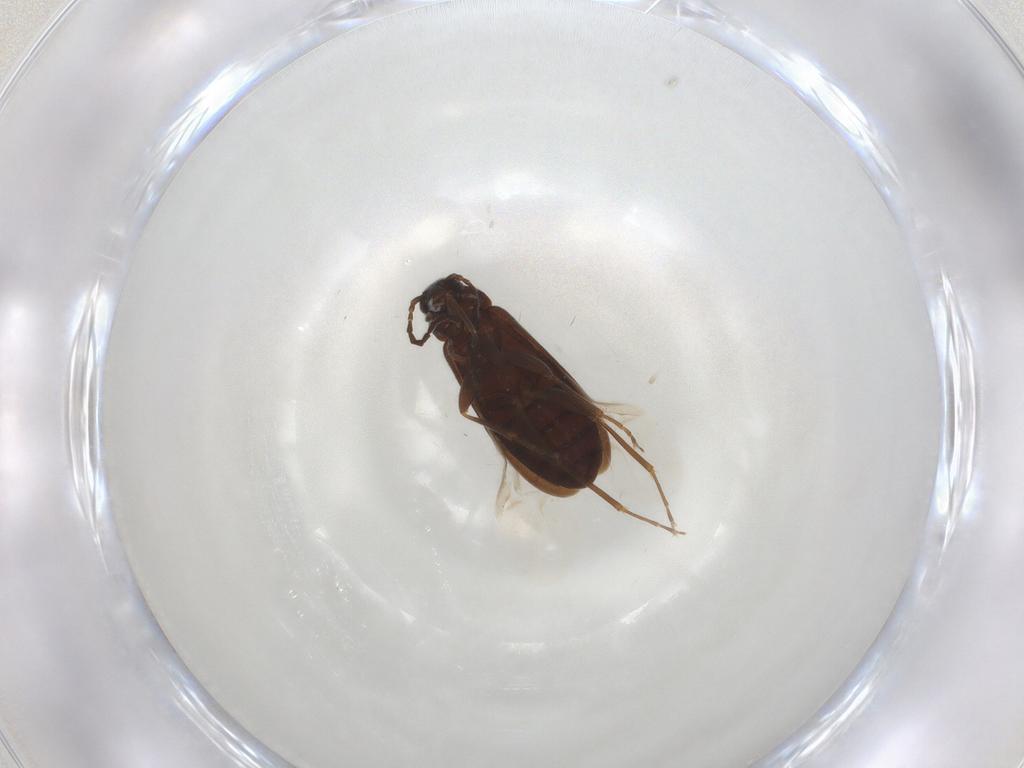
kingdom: Animalia
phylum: Arthropoda
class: Insecta
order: Coleoptera
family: Scraptiidae
